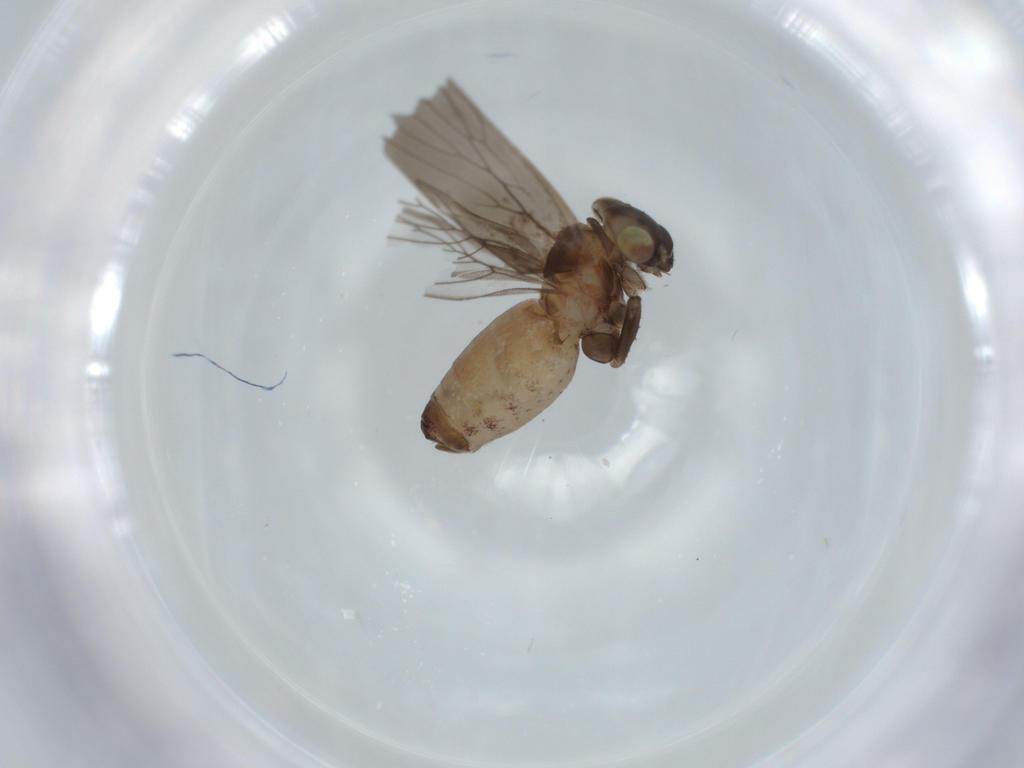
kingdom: Animalia
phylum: Arthropoda
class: Insecta
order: Psocodea
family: Lepidopsocidae
